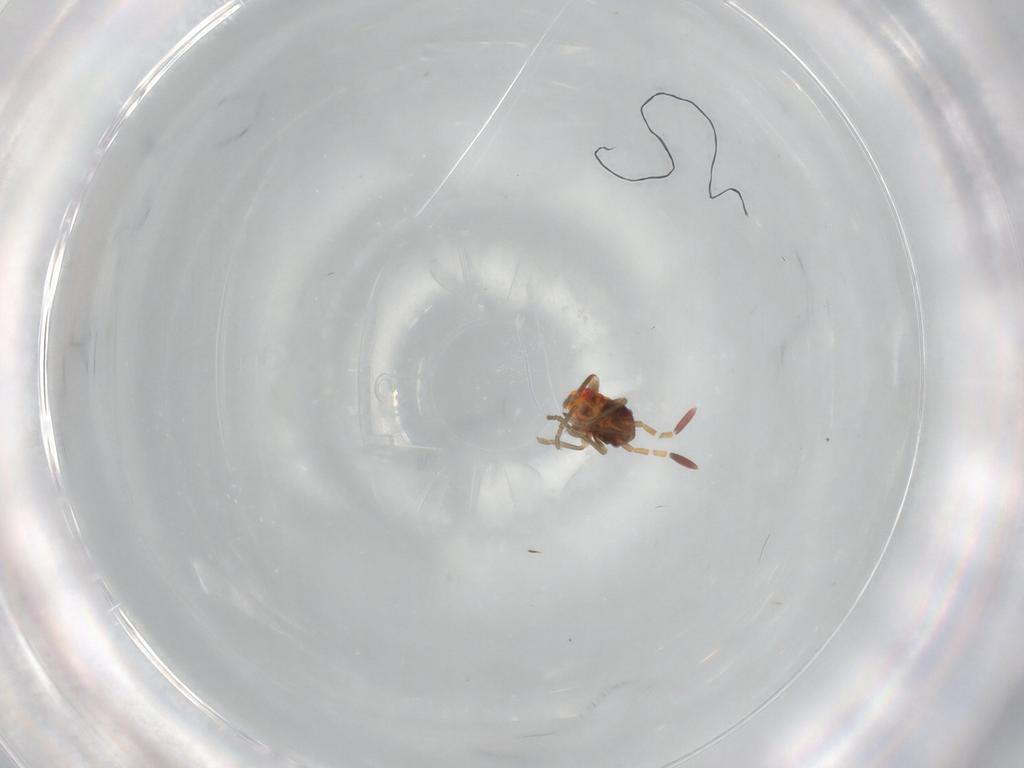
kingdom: Animalia
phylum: Arthropoda
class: Insecta
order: Hemiptera
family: Rhyparochromidae
